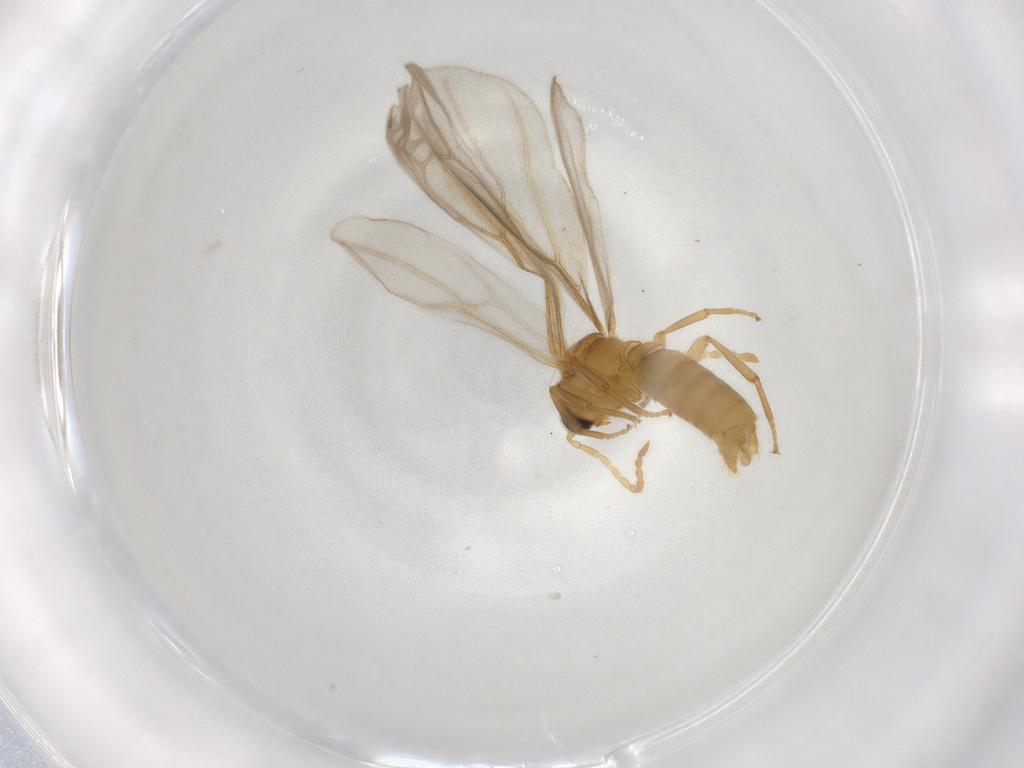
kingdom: Animalia
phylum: Arthropoda
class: Insecta
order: Hymenoptera
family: Formicidae
